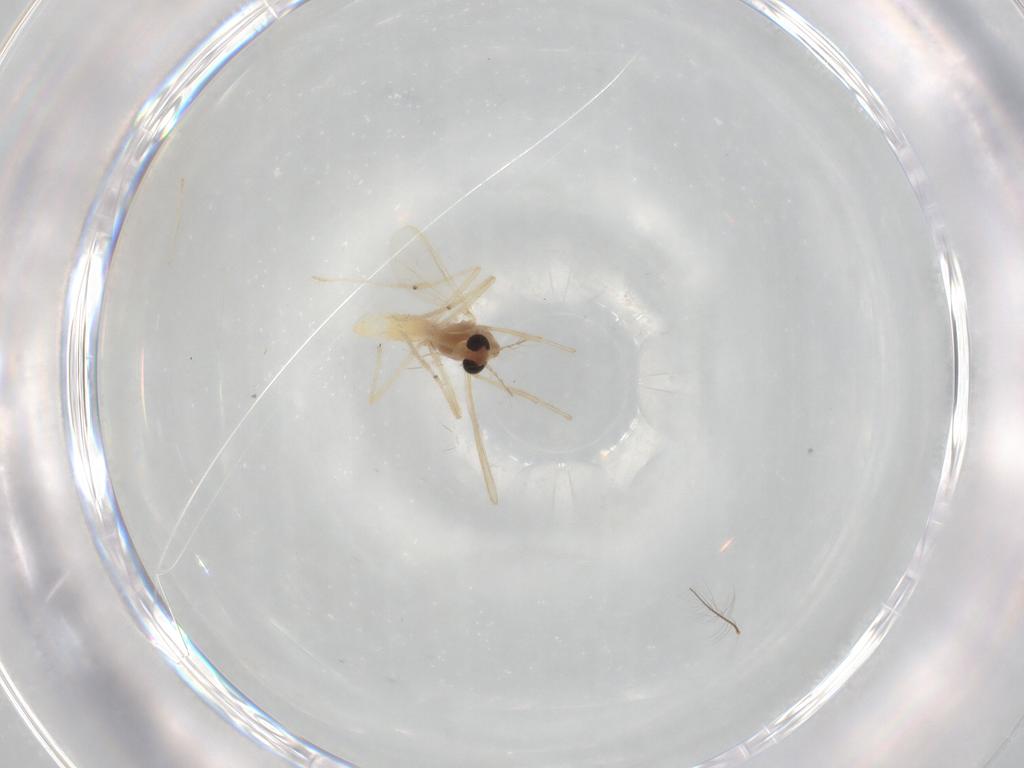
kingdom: Animalia
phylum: Arthropoda
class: Insecta
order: Diptera
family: Chironomidae
